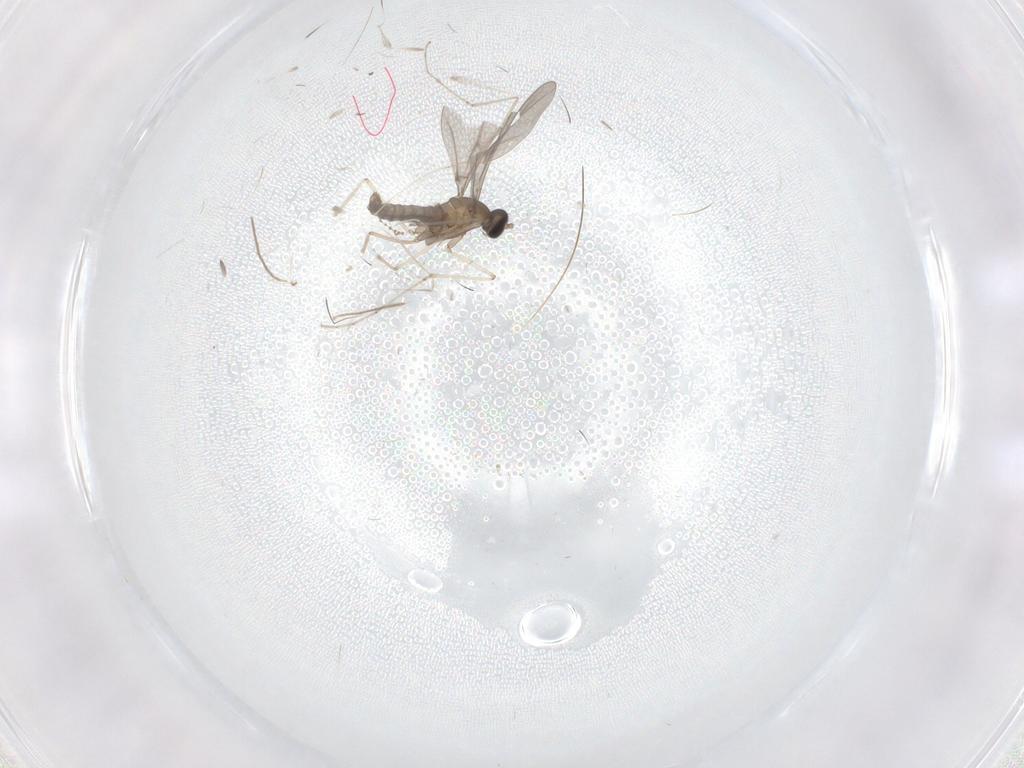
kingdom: Animalia
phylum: Arthropoda
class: Insecta
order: Diptera
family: Cecidomyiidae
